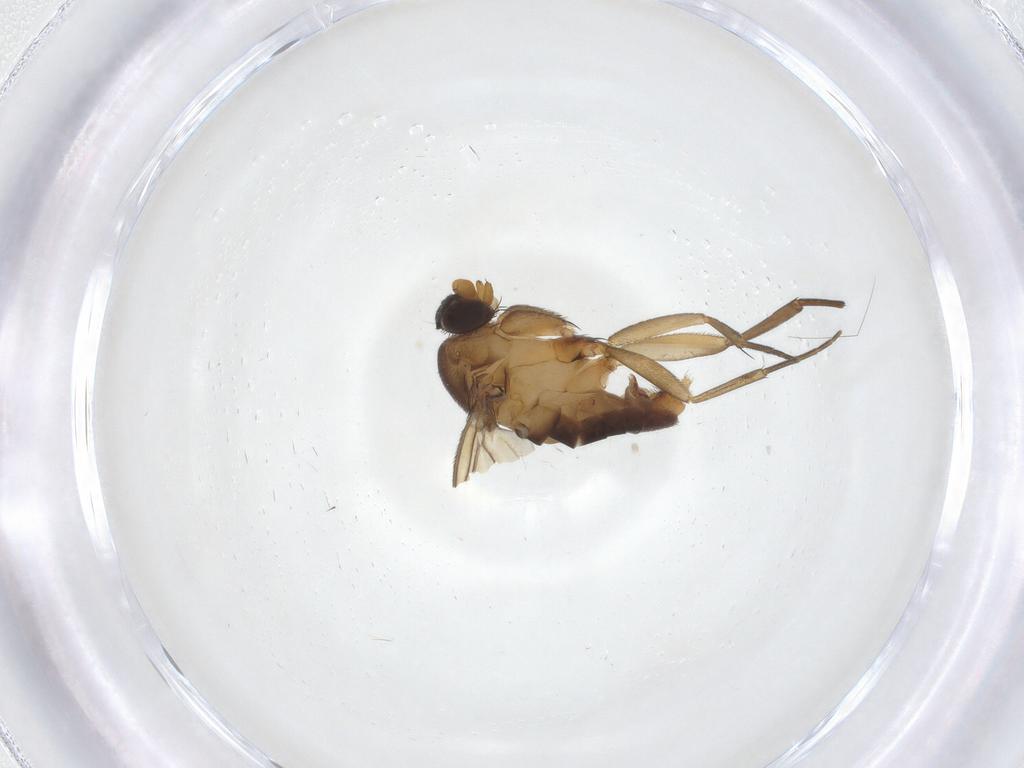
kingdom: Animalia
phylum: Arthropoda
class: Insecta
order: Diptera
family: Phoridae
